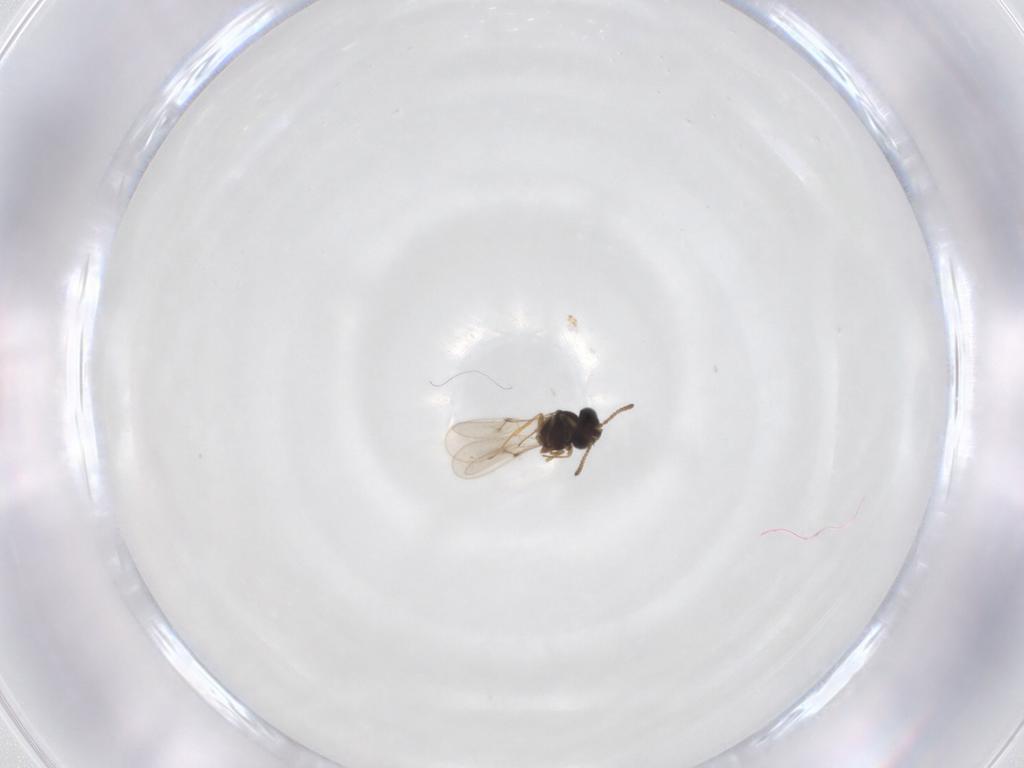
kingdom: Animalia
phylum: Arthropoda
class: Insecta
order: Hymenoptera
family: Scelionidae
